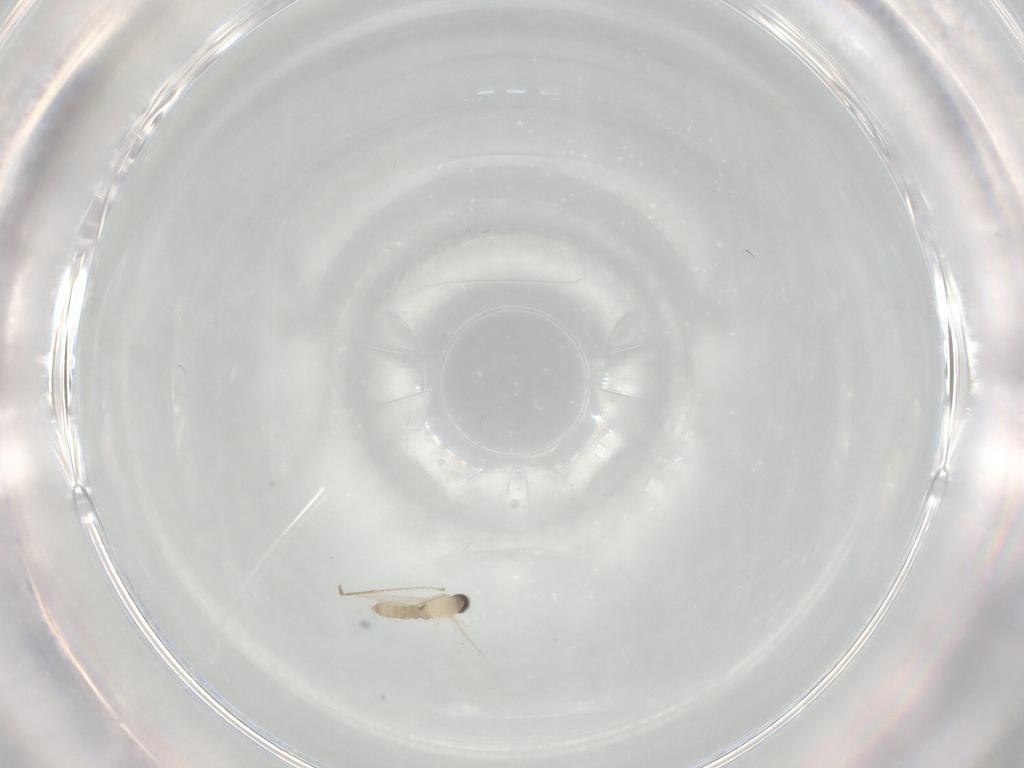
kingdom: Animalia
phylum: Arthropoda
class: Insecta
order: Diptera
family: Cecidomyiidae
